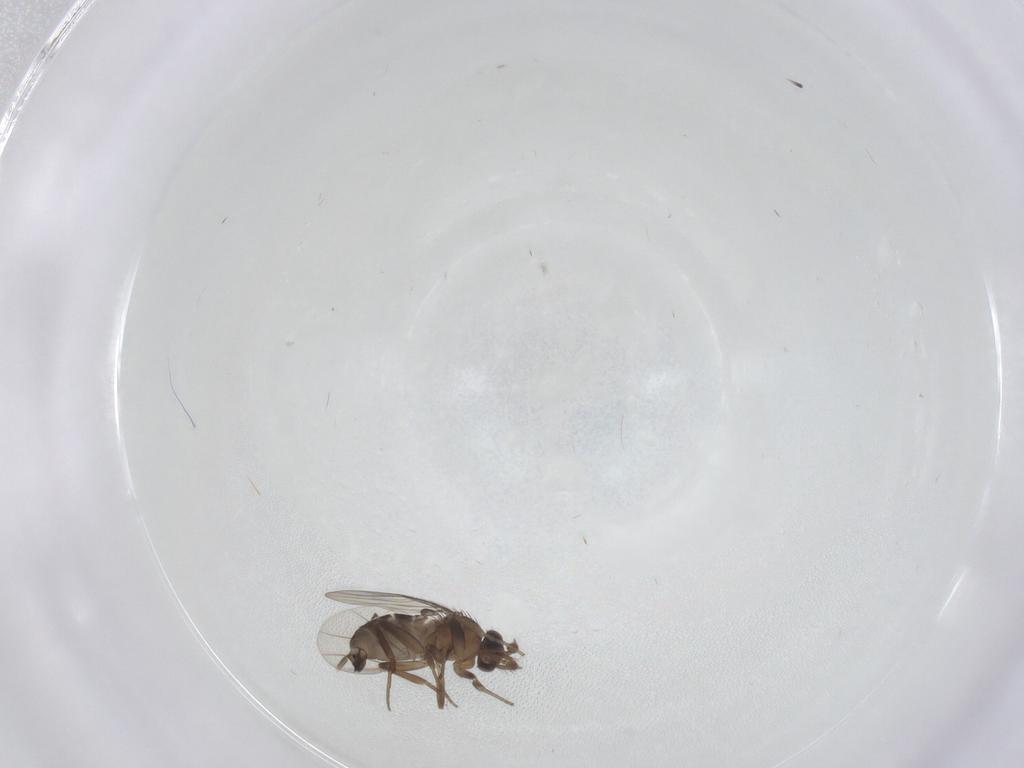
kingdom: Animalia
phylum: Arthropoda
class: Insecta
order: Diptera
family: Phoridae
